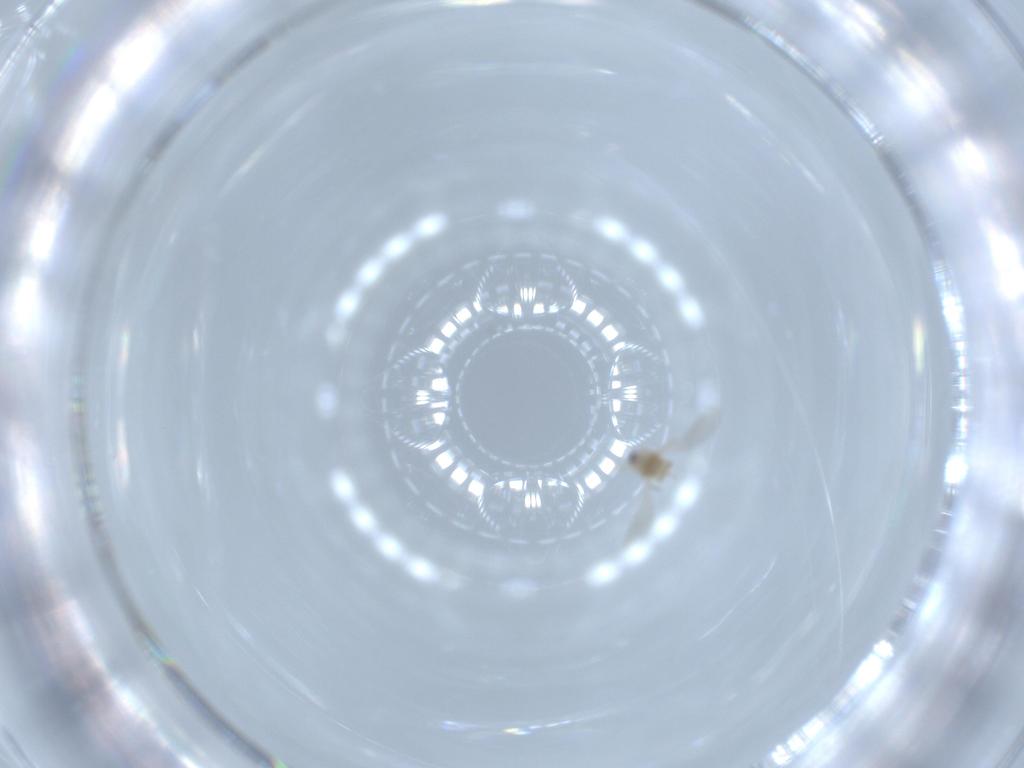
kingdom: Animalia
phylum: Arthropoda
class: Insecta
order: Hemiptera
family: Diaspididae
